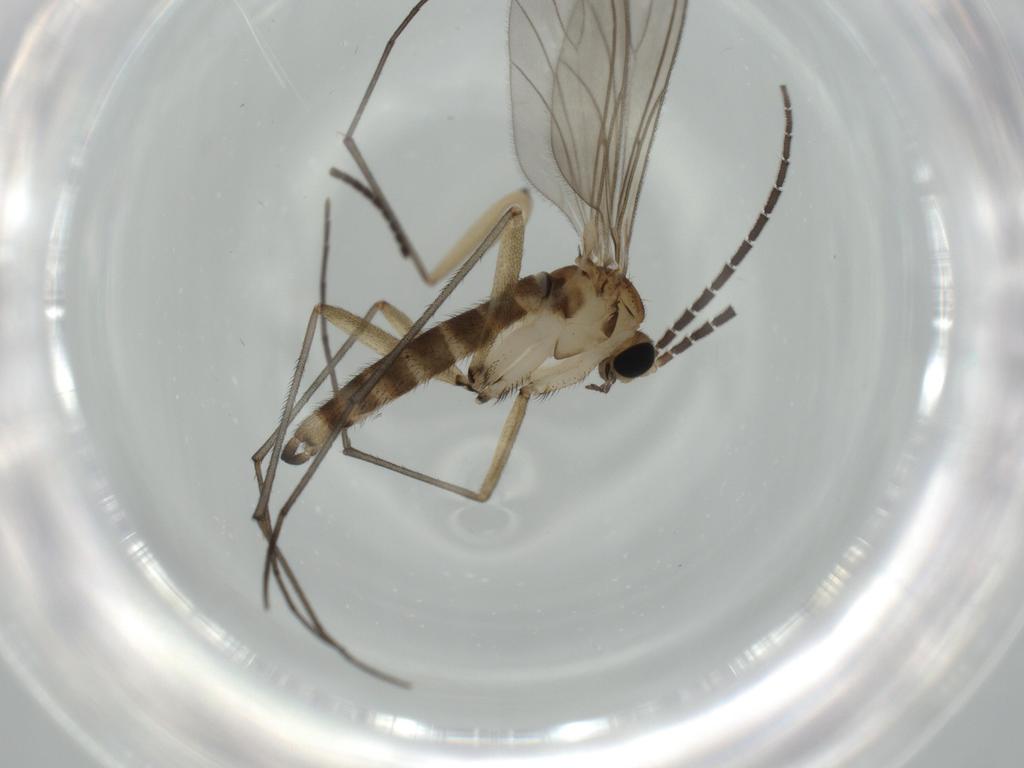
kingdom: Animalia
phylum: Arthropoda
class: Insecta
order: Diptera
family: Sciaridae
